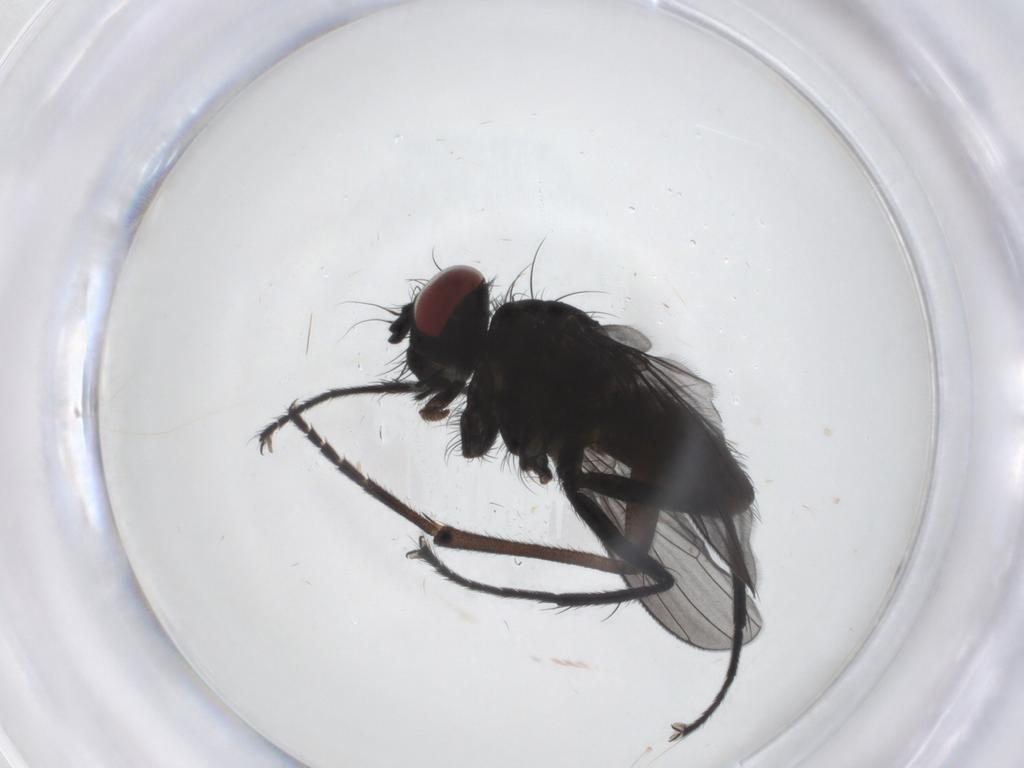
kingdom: Animalia
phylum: Arthropoda
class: Insecta
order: Diptera
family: Muscidae
